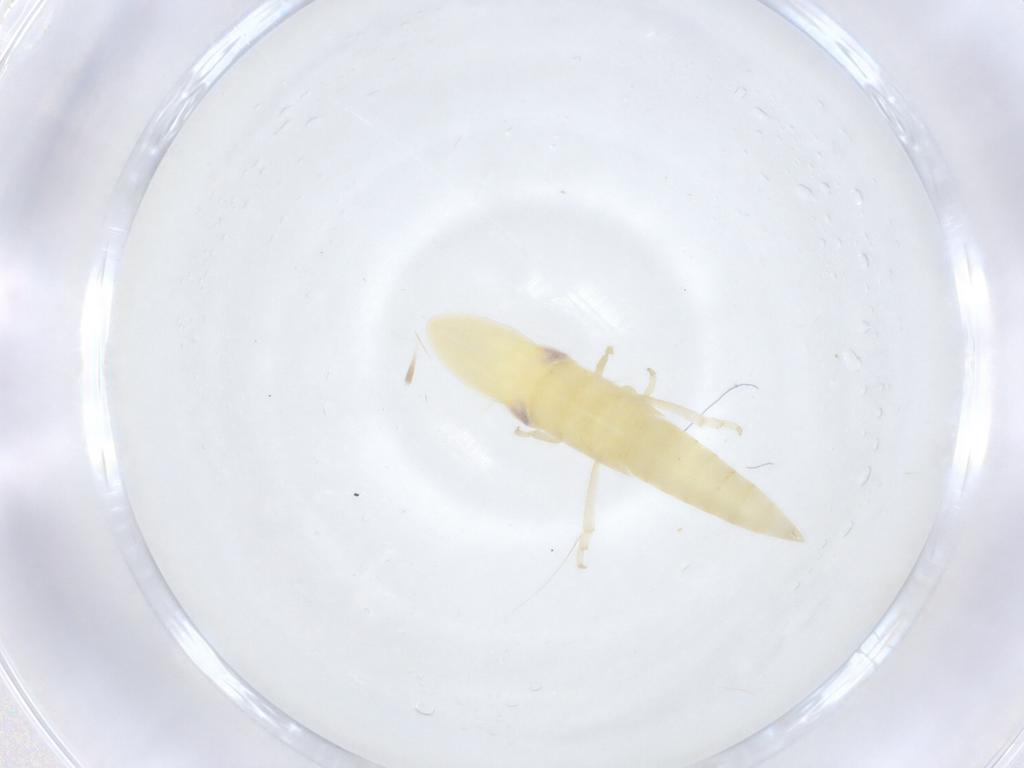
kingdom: Animalia
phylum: Arthropoda
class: Insecta
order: Hemiptera
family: Cicadellidae
